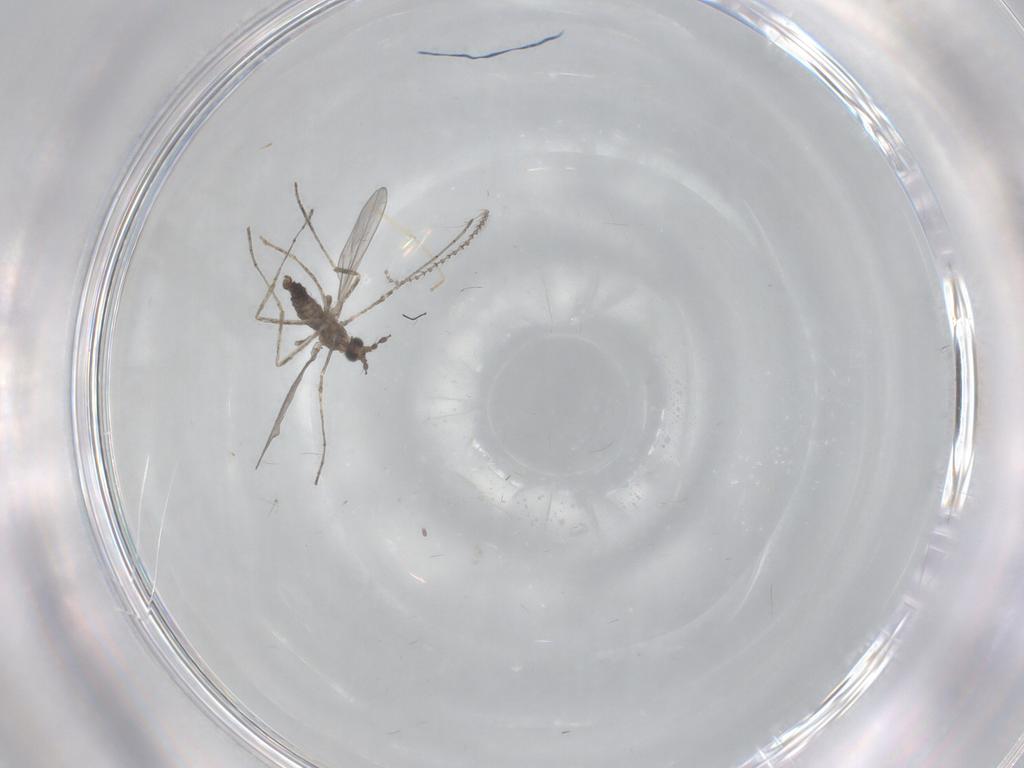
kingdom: Animalia
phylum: Arthropoda
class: Insecta
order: Diptera
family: Cecidomyiidae
